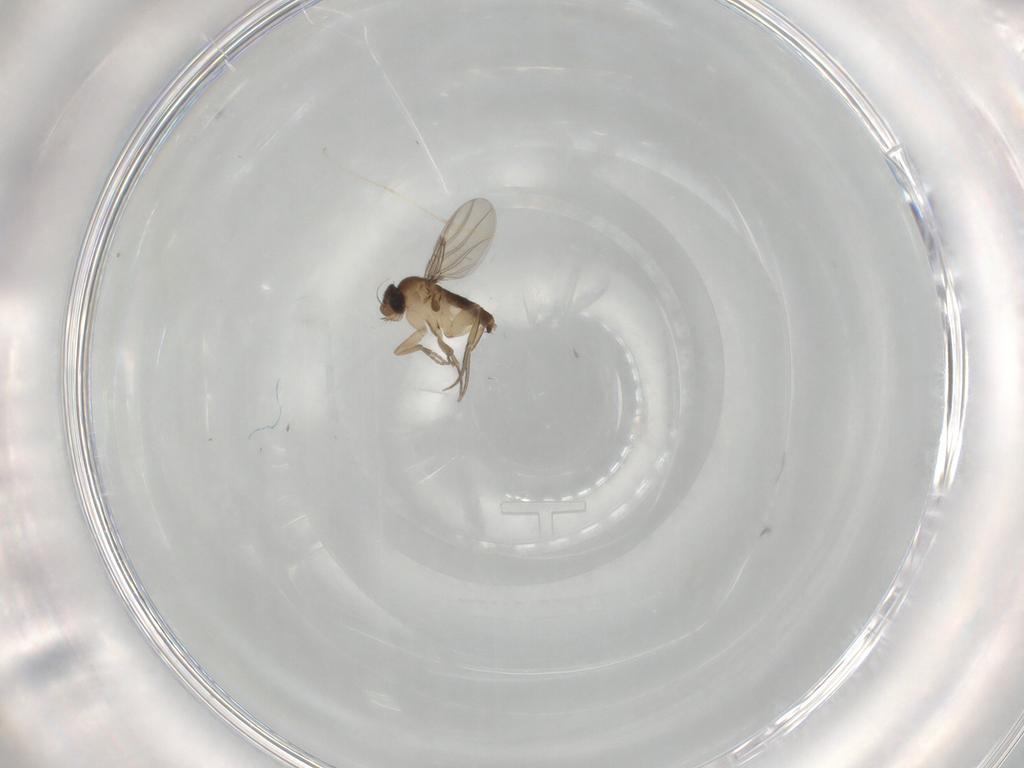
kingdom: Animalia
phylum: Arthropoda
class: Insecta
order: Diptera
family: Phoridae
